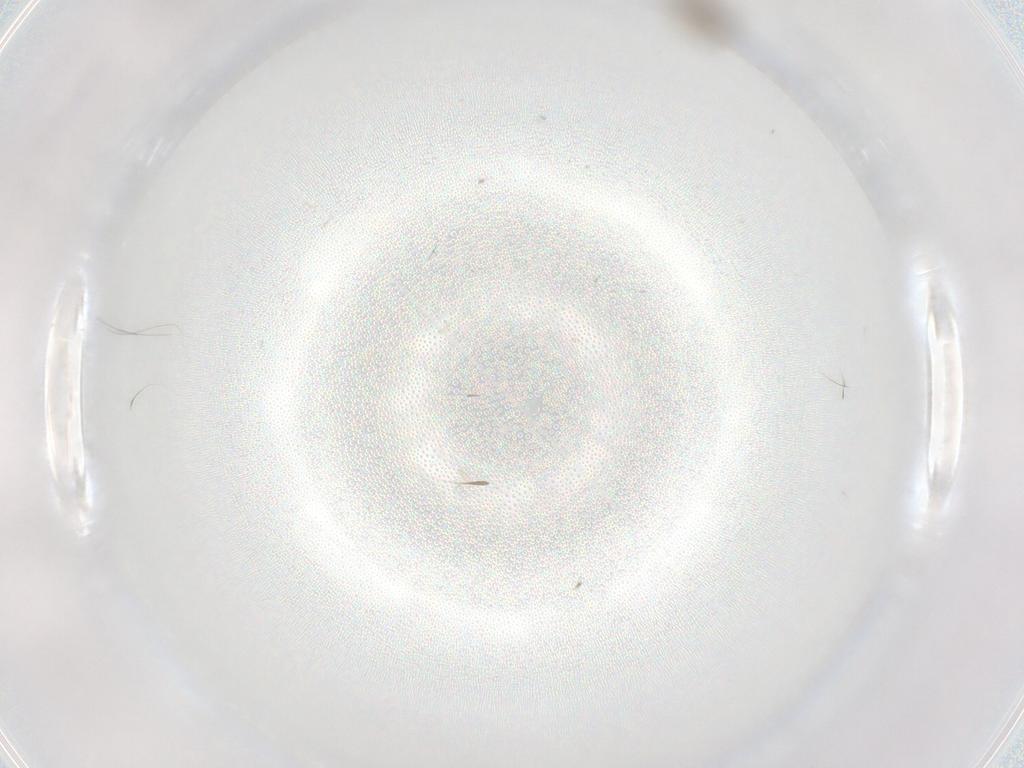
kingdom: Animalia
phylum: Arthropoda
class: Insecta
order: Diptera
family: Cecidomyiidae
